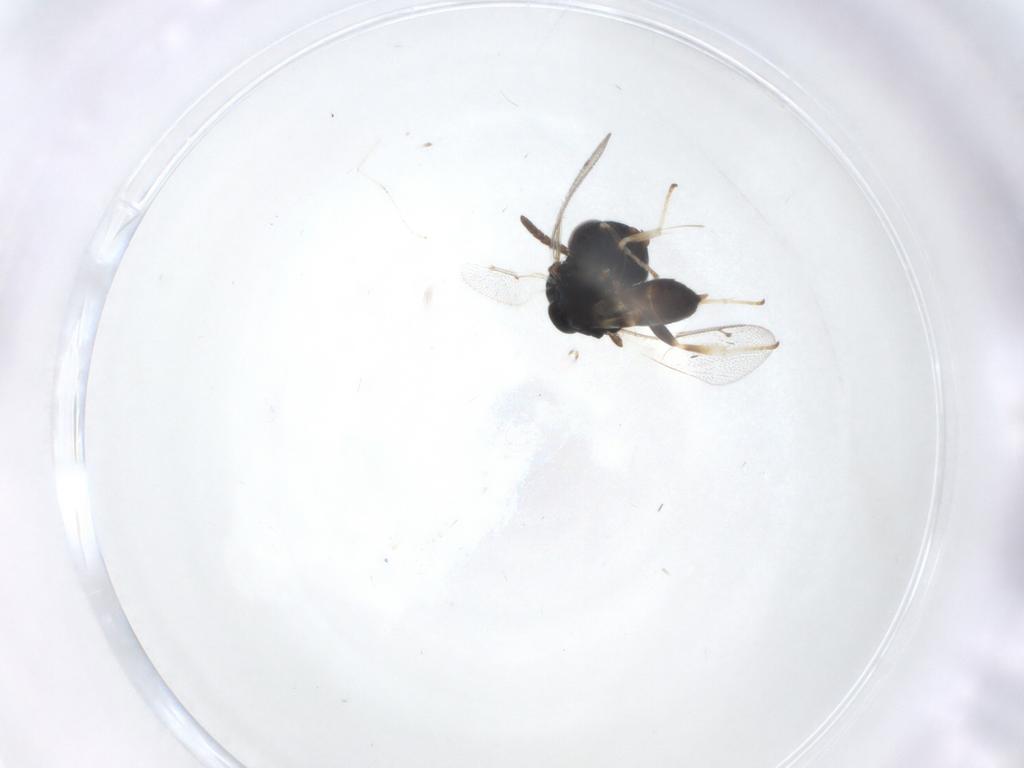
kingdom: Animalia
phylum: Arthropoda
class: Insecta
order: Hymenoptera
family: Pteromalidae
